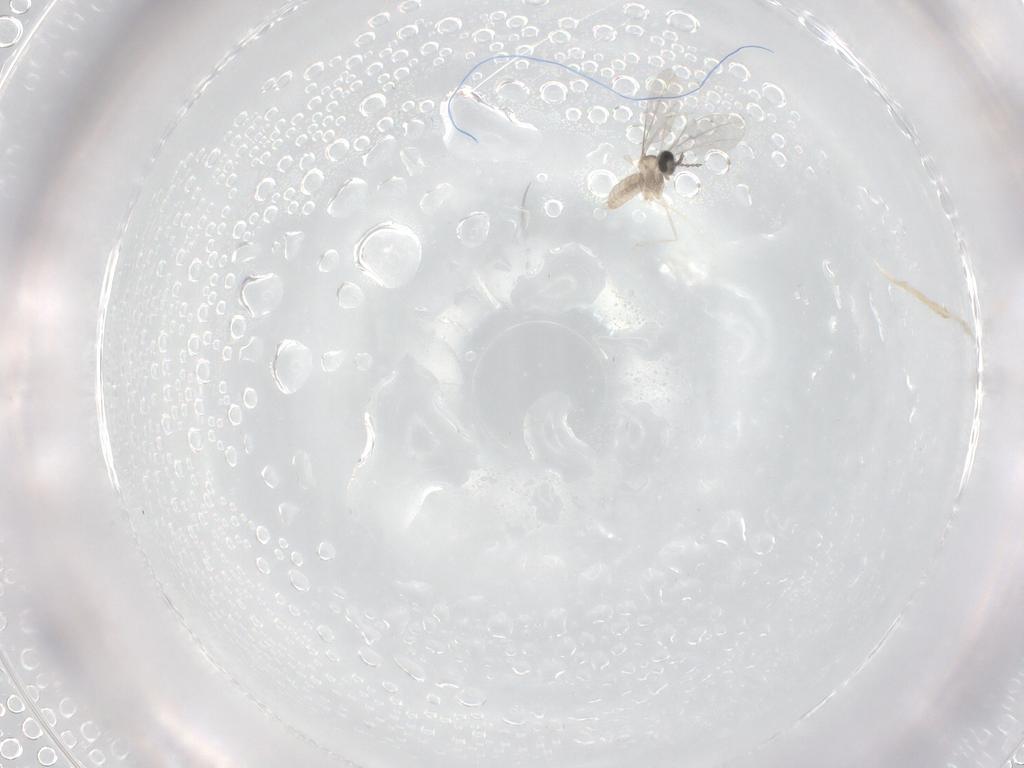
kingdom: Animalia
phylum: Arthropoda
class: Insecta
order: Diptera
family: Cecidomyiidae
